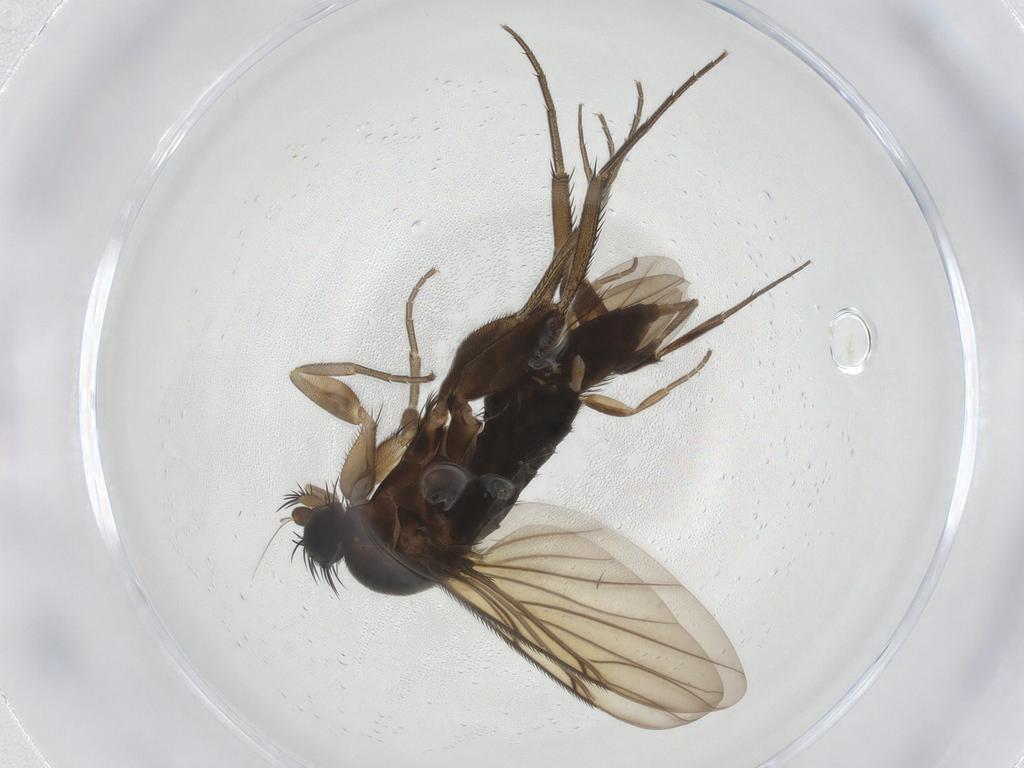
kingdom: Animalia
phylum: Arthropoda
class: Insecta
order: Diptera
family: Phoridae
